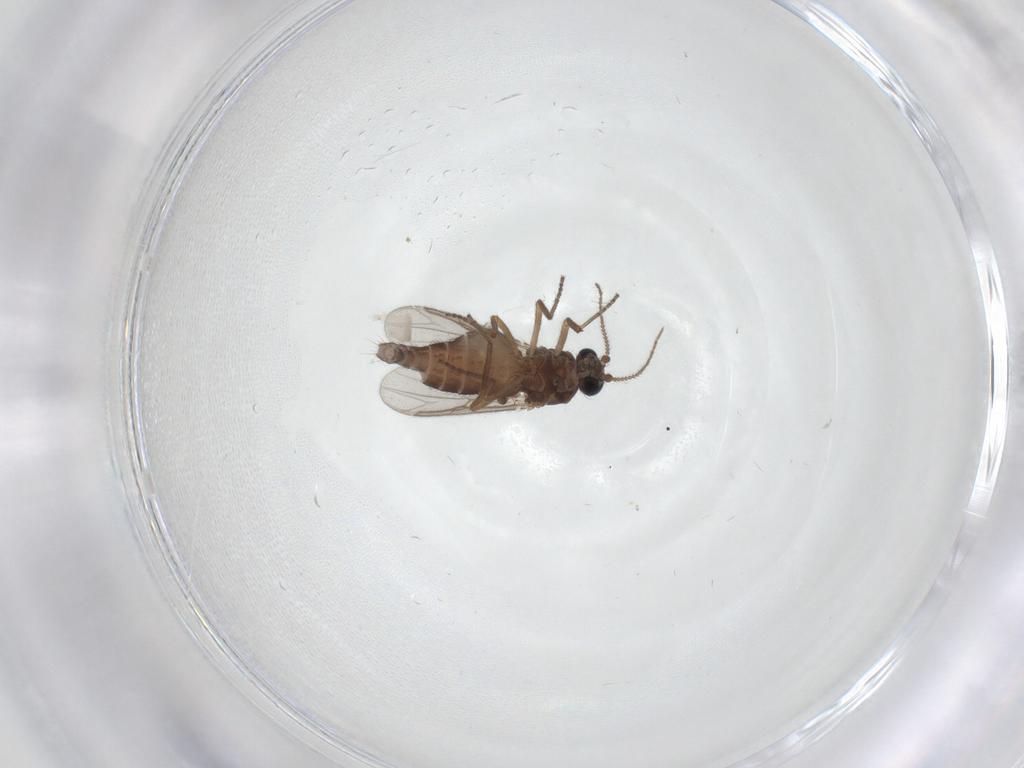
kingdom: Animalia
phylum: Arthropoda
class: Insecta
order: Diptera
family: Ceratopogonidae
